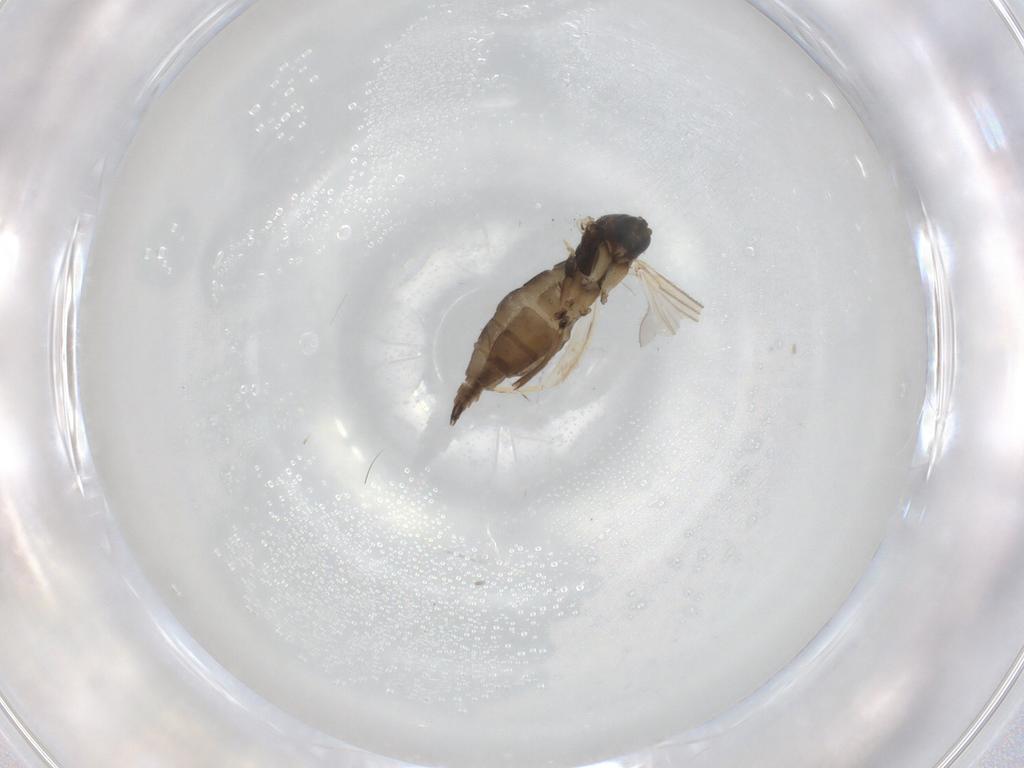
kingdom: Animalia
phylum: Arthropoda
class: Insecta
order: Diptera
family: Sciaridae
